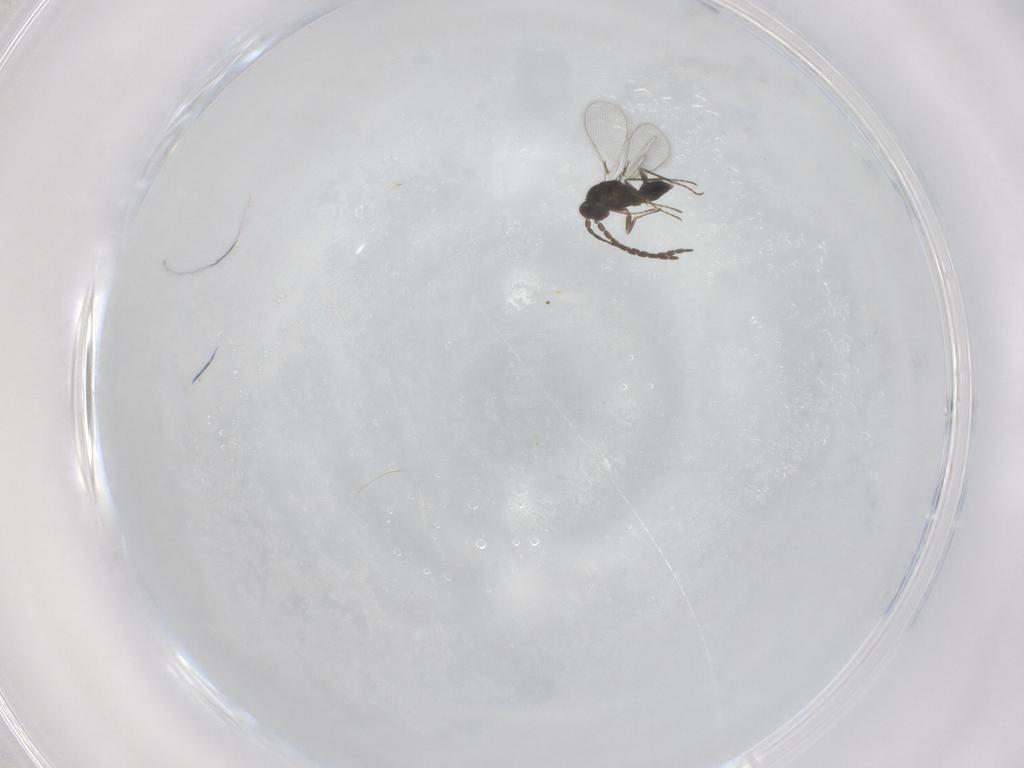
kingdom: Animalia
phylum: Arthropoda
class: Insecta
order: Hymenoptera
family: Mymaridae
